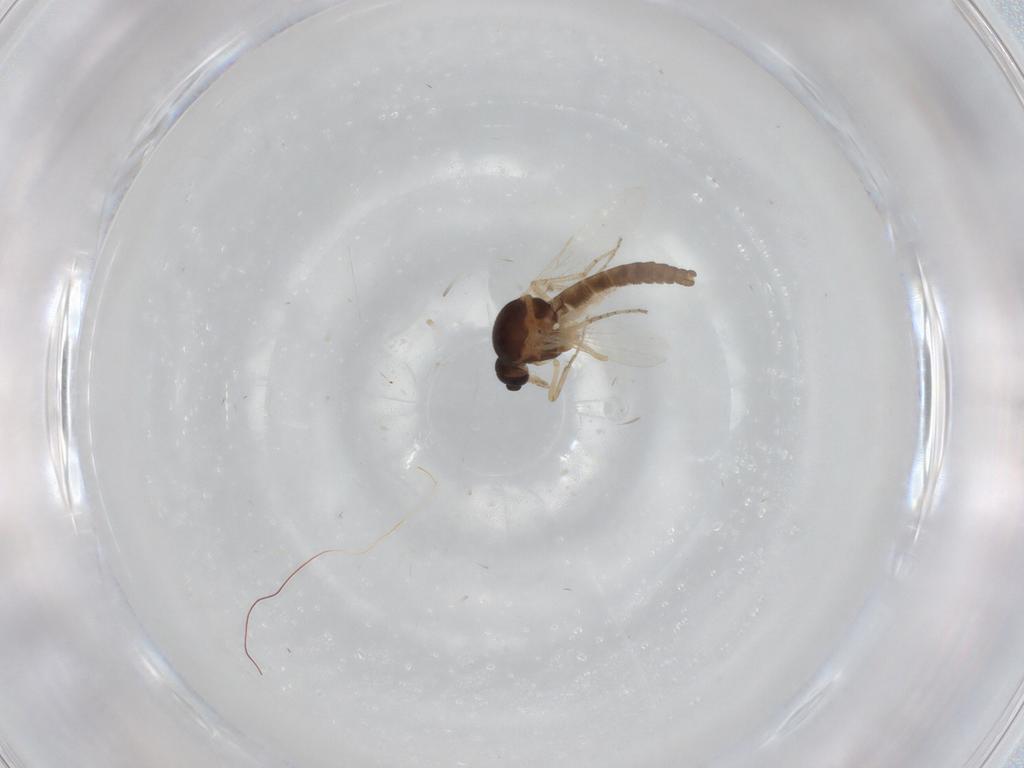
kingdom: Animalia
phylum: Arthropoda
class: Insecta
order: Diptera
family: Ceratopogonidae
